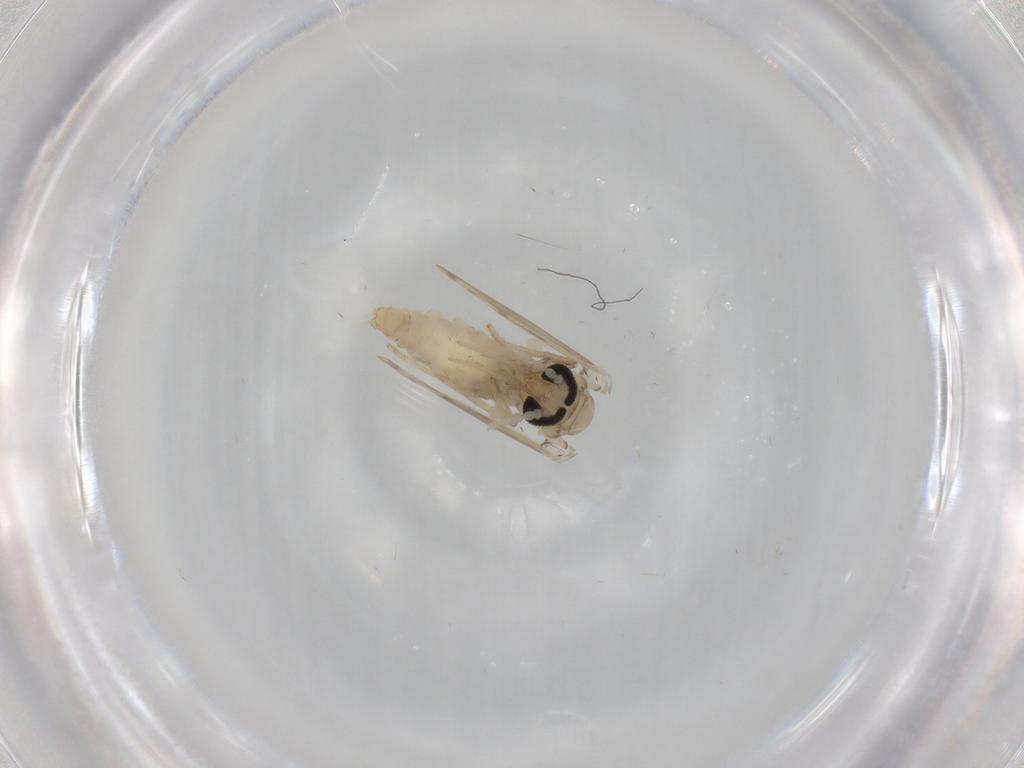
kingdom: Animalia
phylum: Arthropoda
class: Insecta
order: Diptera
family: Psychodidae
